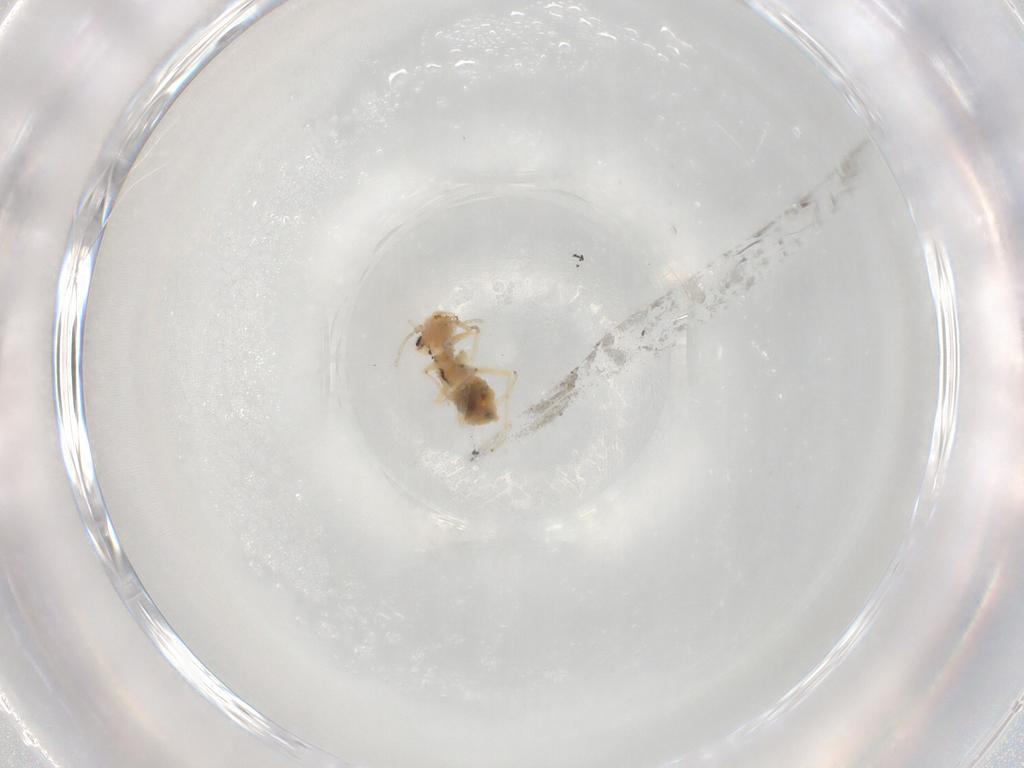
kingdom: Animalia
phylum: Arthropoda
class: Insecta
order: Psocodea
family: Caeciliusidae
